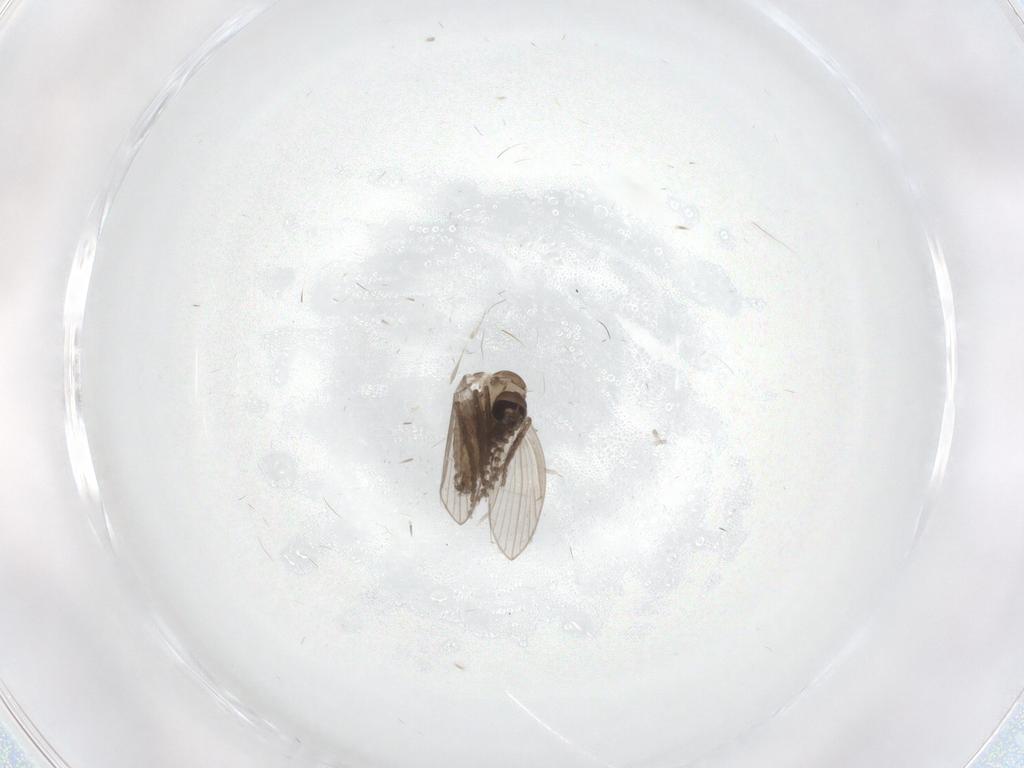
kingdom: Animalia
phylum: Arthropoda
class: Insecta
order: Diptera
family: Psychodidae
